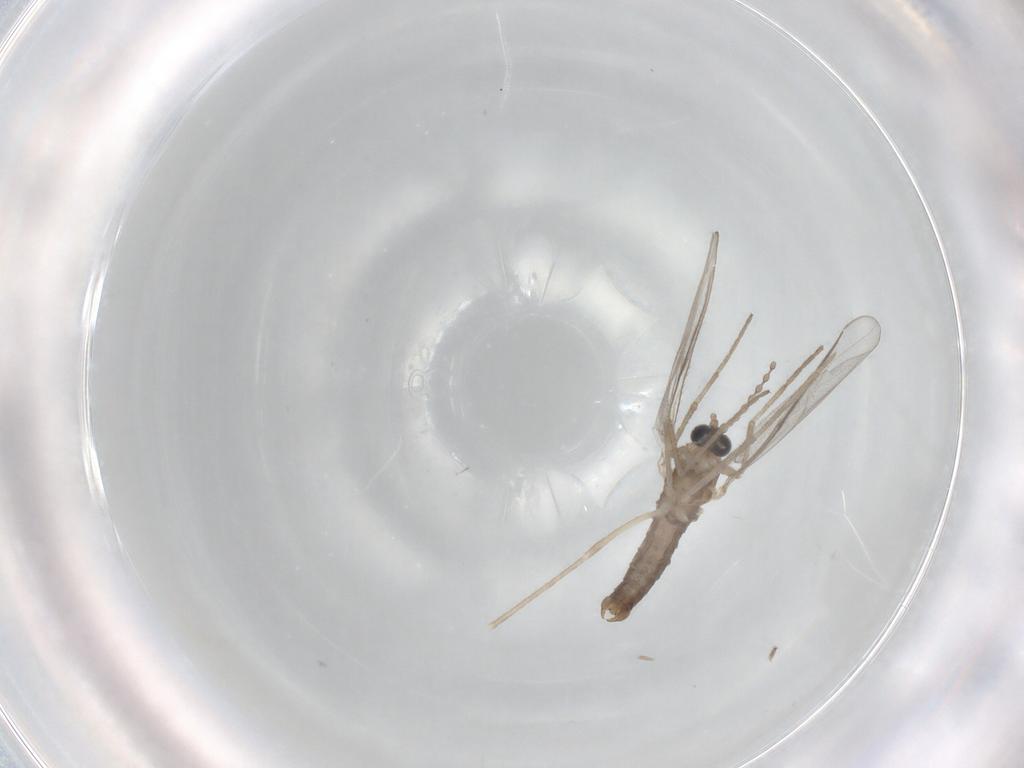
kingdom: Animalia
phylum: Arthropoda
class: Insecta
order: Diptera
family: Cecidomyiidae
